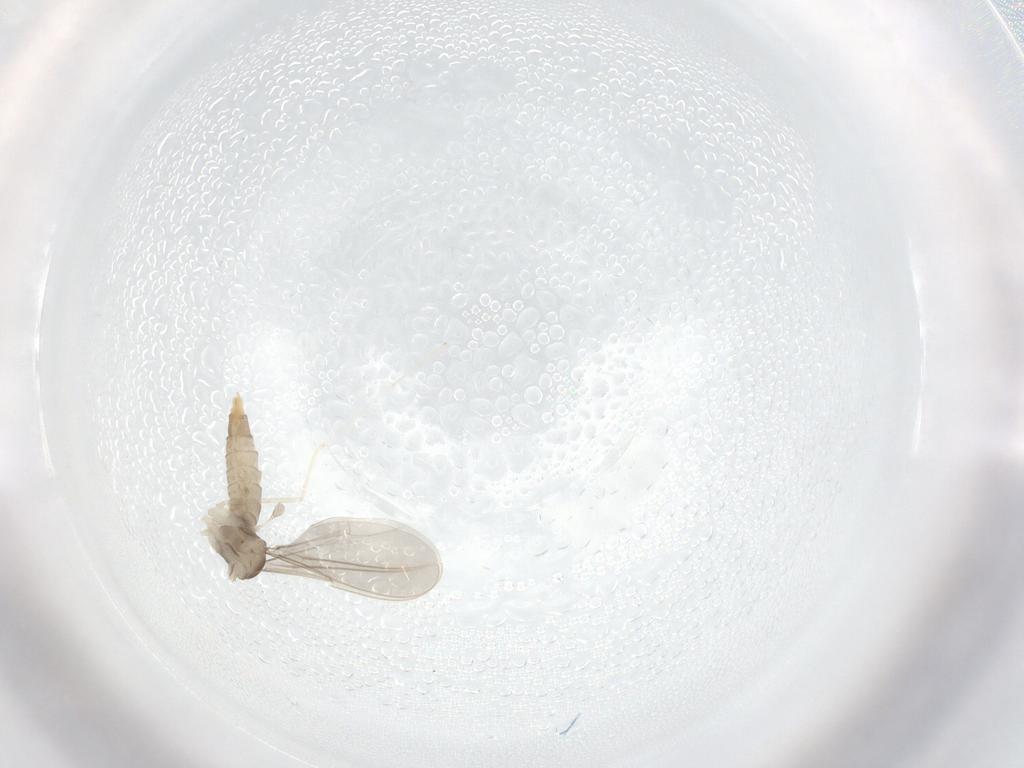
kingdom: Animalia
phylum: Arthropoda
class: Insecta
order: Diptera
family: Cecidomyiidae
